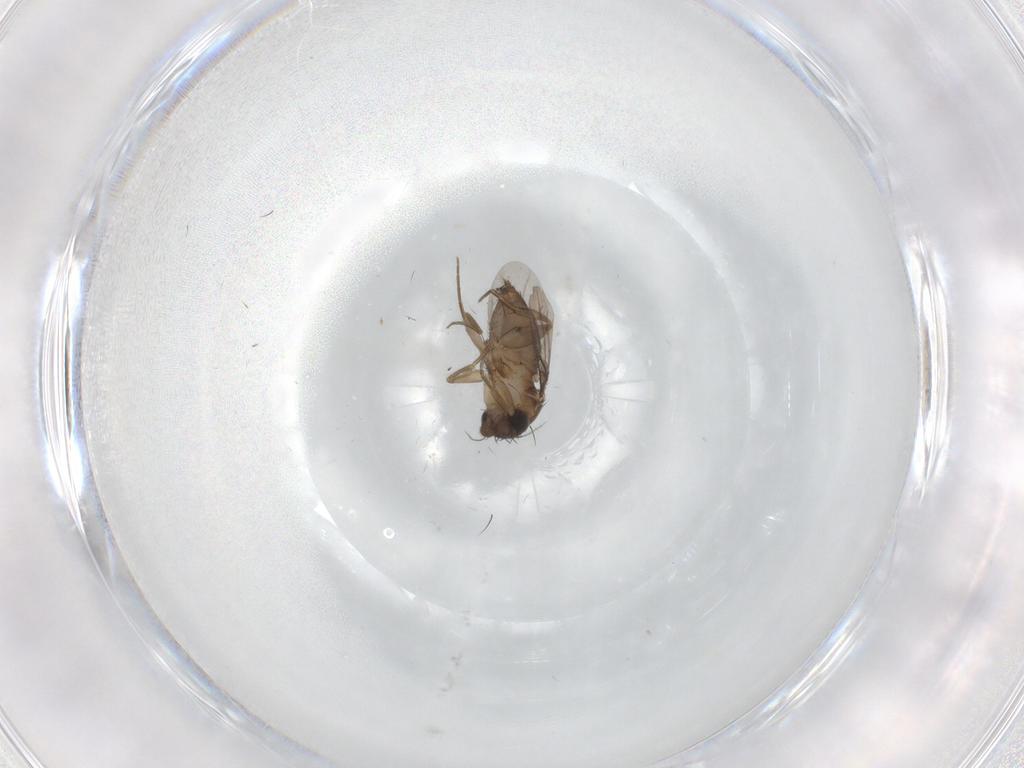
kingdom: Animalia
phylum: Arthropoda
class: Insecta
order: Diptera
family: Phoridae
